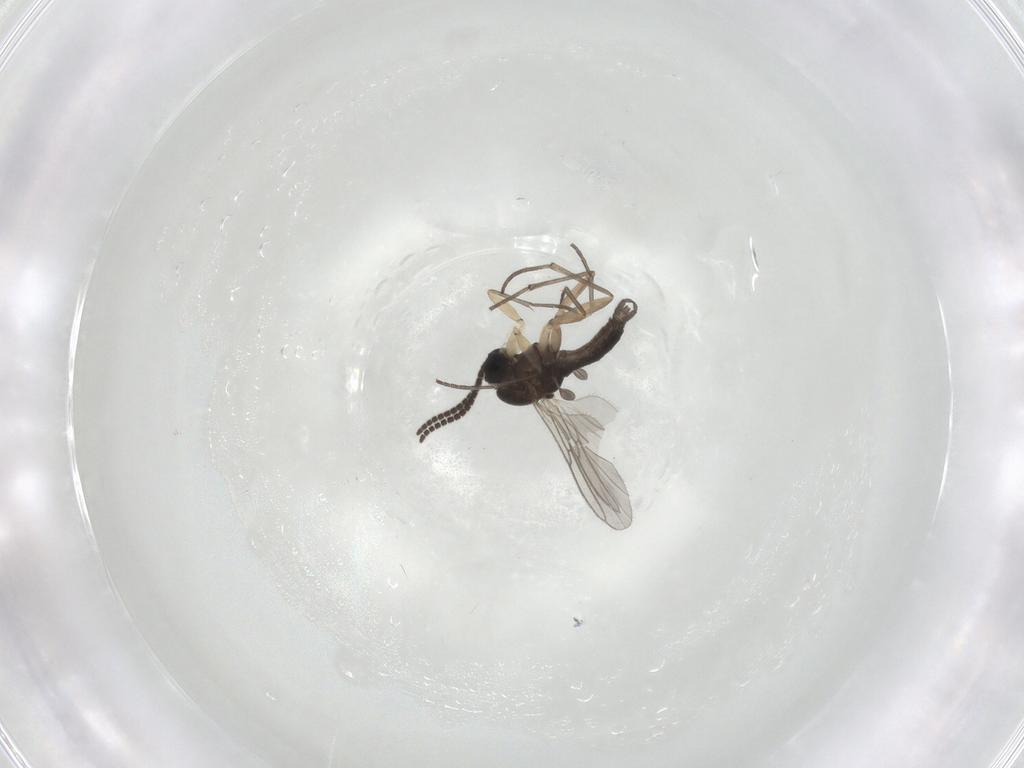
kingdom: Animalia
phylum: Arthropoda
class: Insecta
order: Diptera
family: Sciaridae
